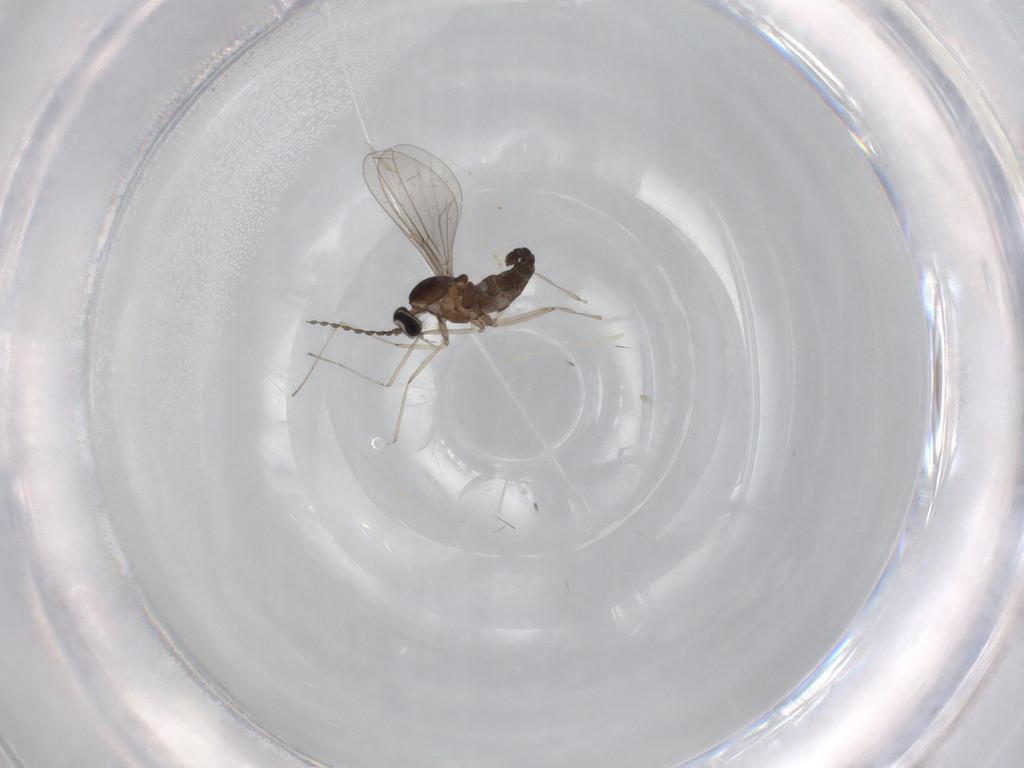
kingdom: Animalia
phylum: Arthropoda
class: Insecta
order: Diptera
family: Cecidomyiidae
